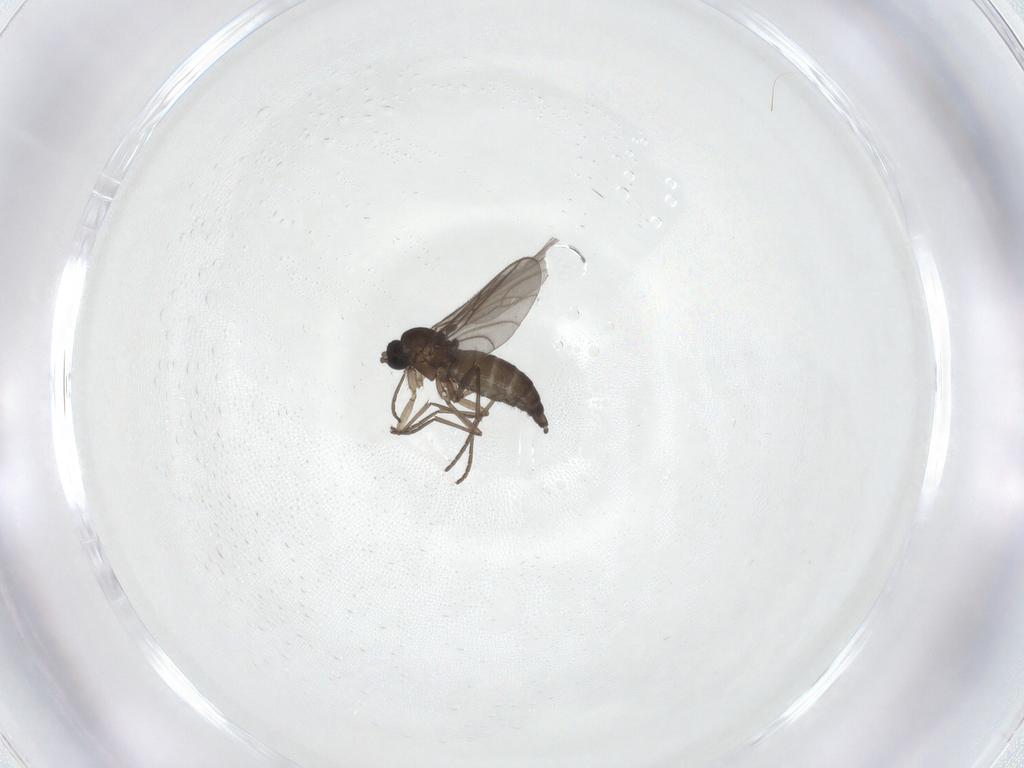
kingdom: Animalia
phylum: Arthropoda
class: Insecta
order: Diptera
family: Sciaridae
